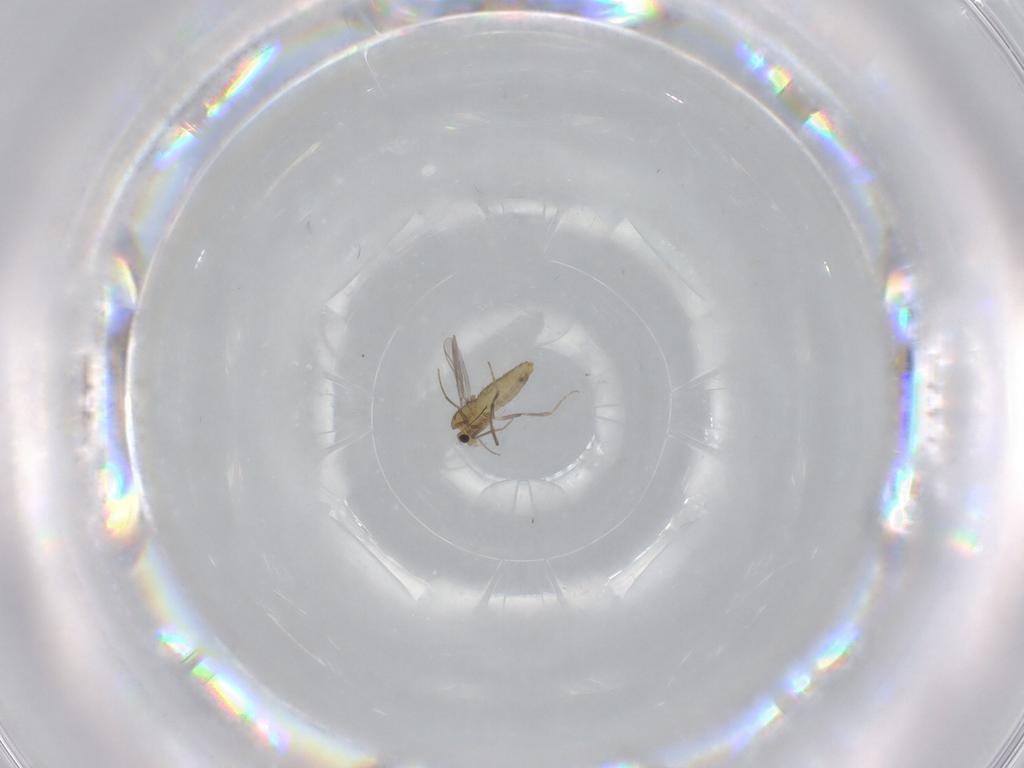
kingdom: Animalia
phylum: Arthropoda
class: Insecta
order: Diptera
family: Chironomidae
